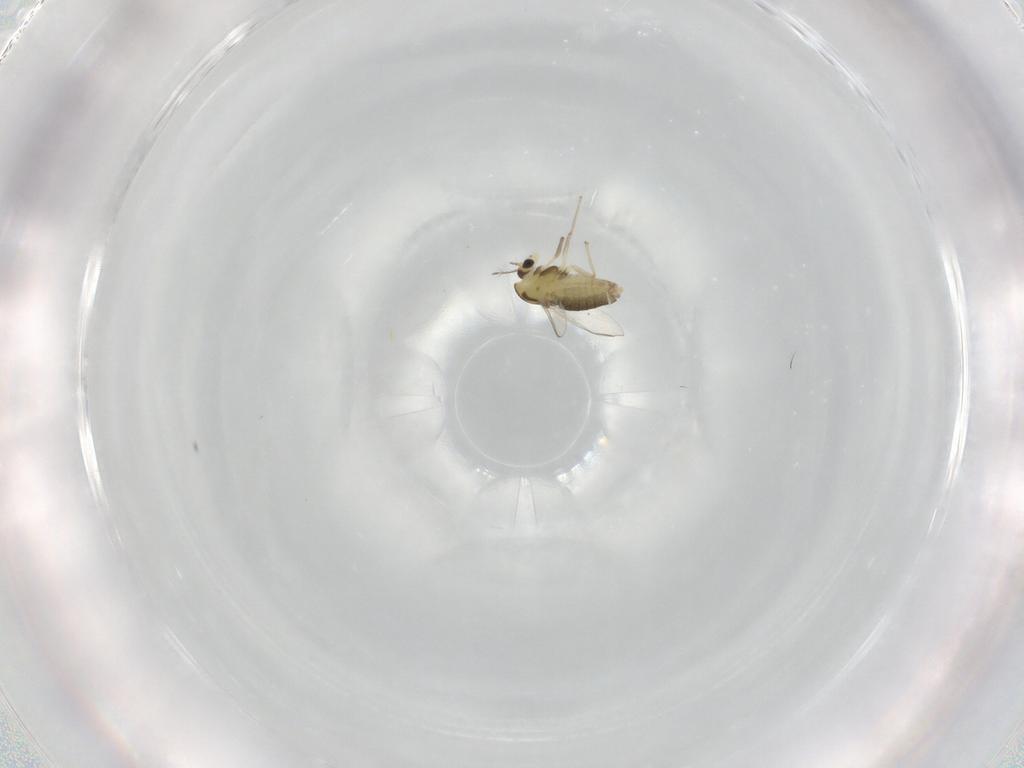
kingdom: Animalia
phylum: Arthropoda
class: Insecta
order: Diptera
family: Chironomidae
